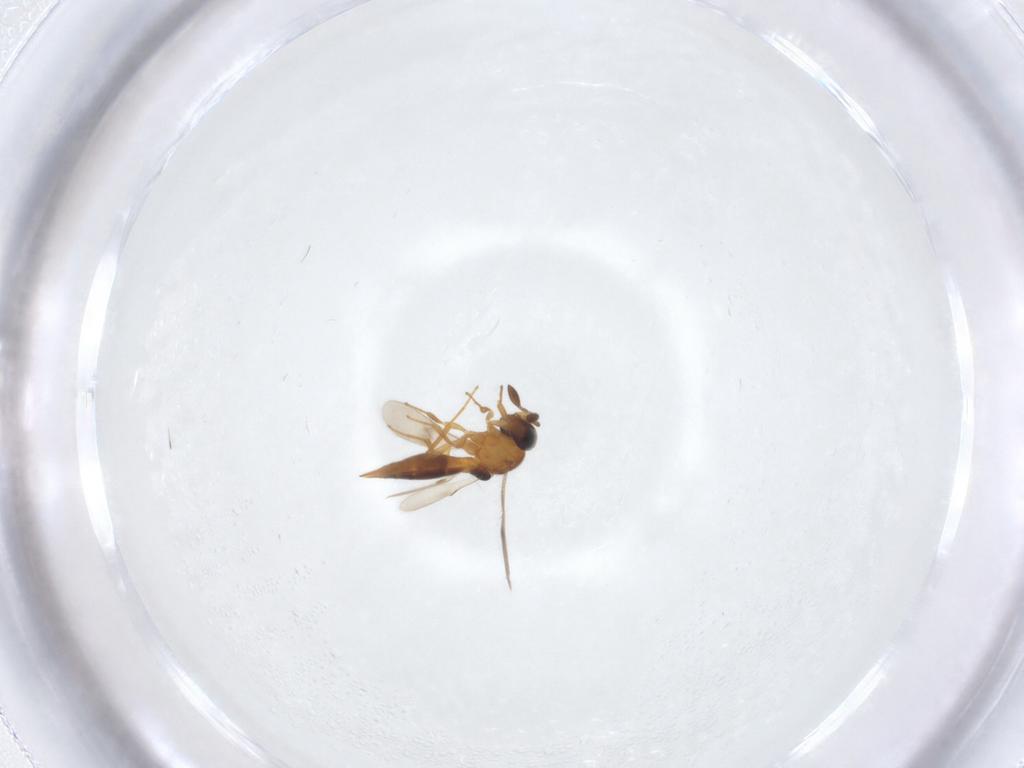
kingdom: Animalia
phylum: Arthropoda
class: Insecta
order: Hymenoptera
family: Scelionidae
